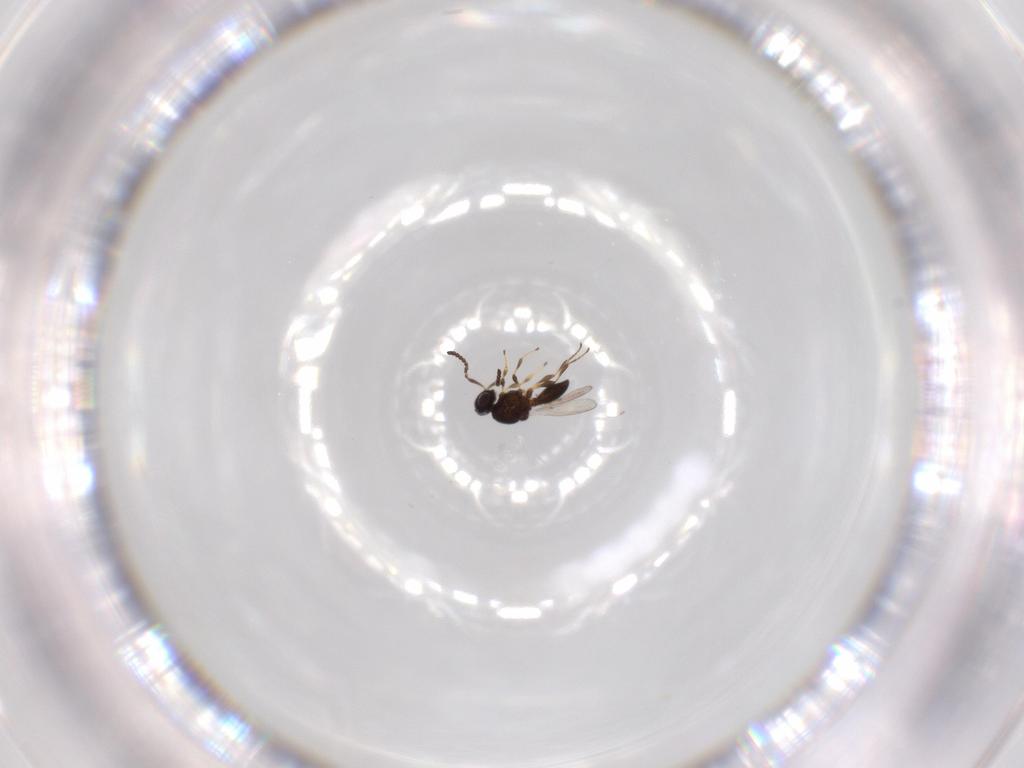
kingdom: Animalia
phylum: Arthropoda
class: Insecta
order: Hymenoptera
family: Platygastridae
